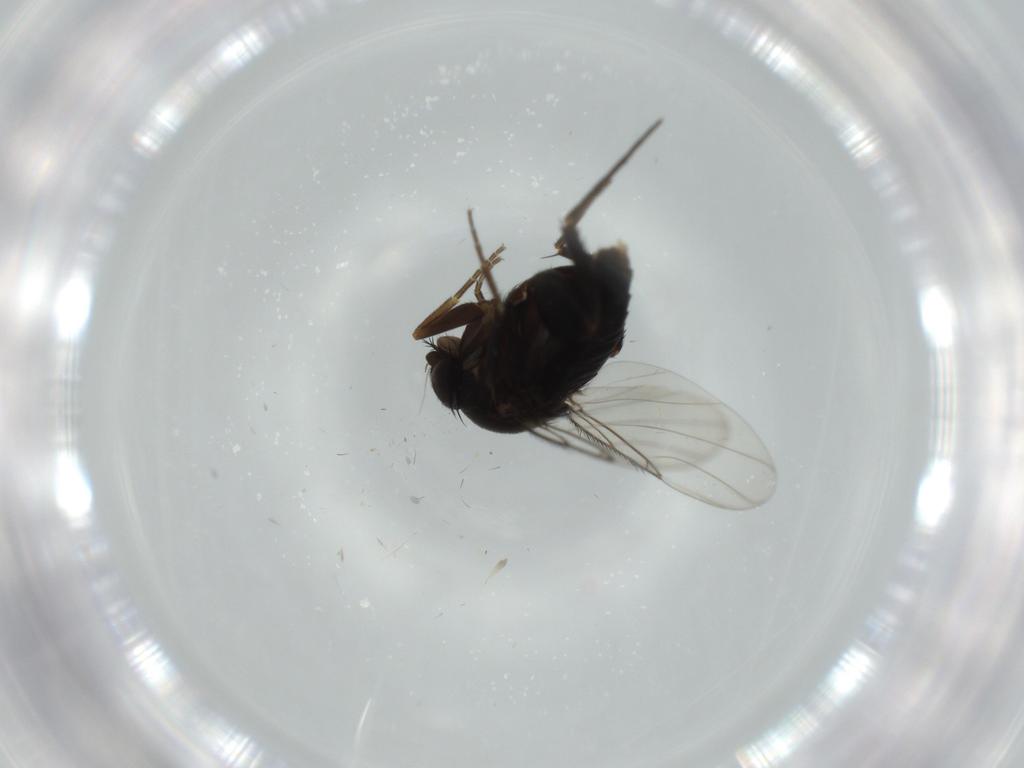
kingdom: Animalia
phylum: Arthropoda
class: Insecta
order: Diptera
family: Phoridae
